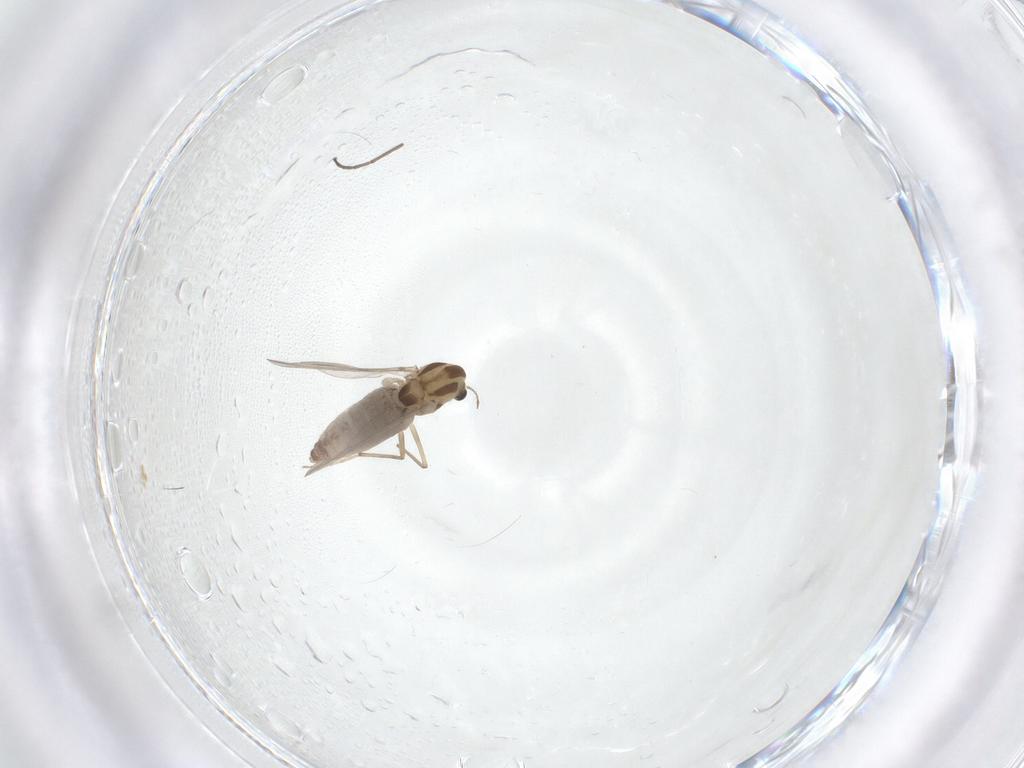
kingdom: Animalia
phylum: Arthropoda
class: Insecta
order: Diptera
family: Chironomidae
